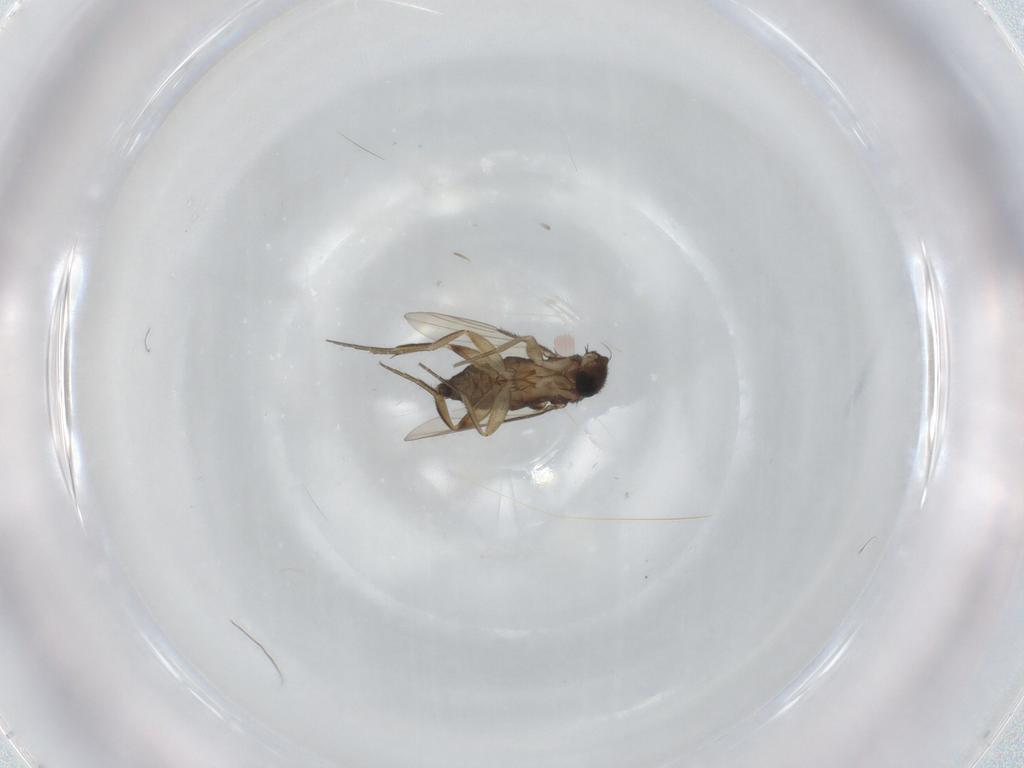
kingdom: Animalia
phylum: Arthropoda
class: Insecta
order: Diptera
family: Phoridae
